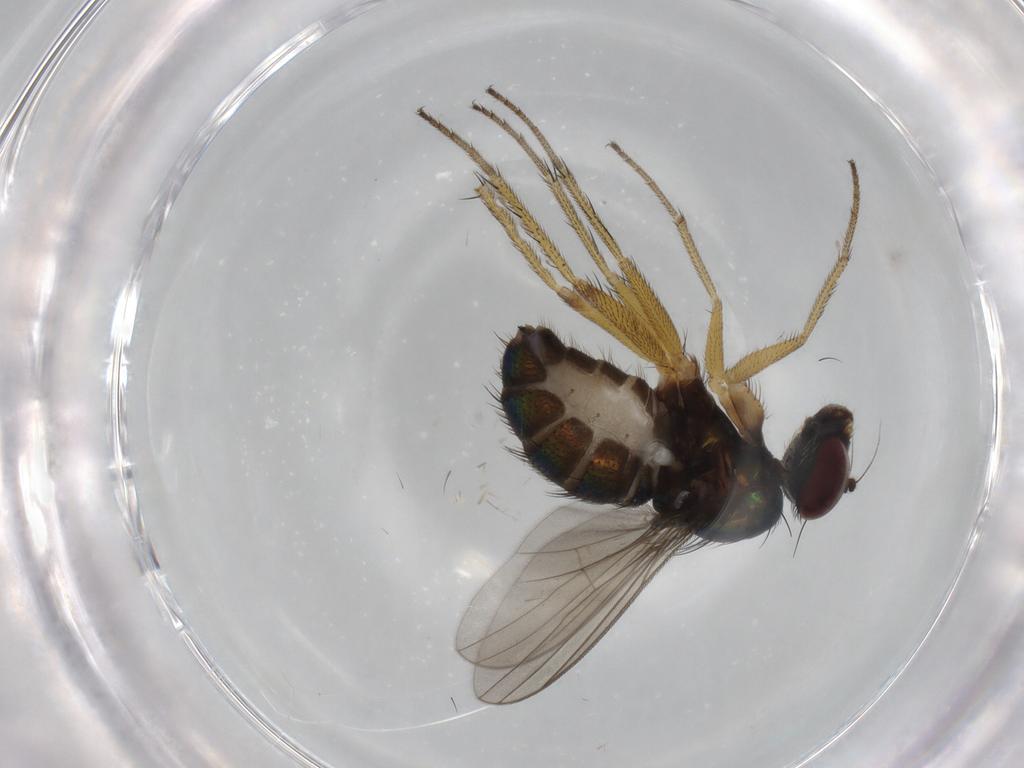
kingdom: Animalia
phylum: Arthropoda
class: Insecta
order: Diptera
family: Dolichopodidae
